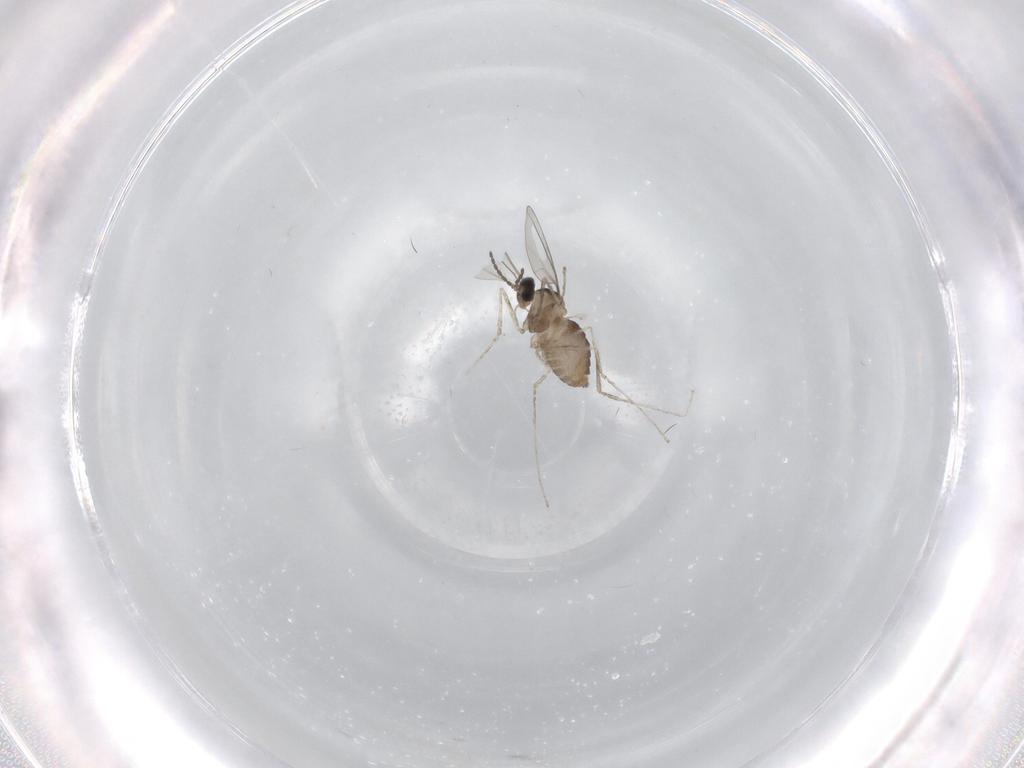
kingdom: Animalia
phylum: Arthropoda
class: Insecta
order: Diptera
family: Cecidomyiidae
